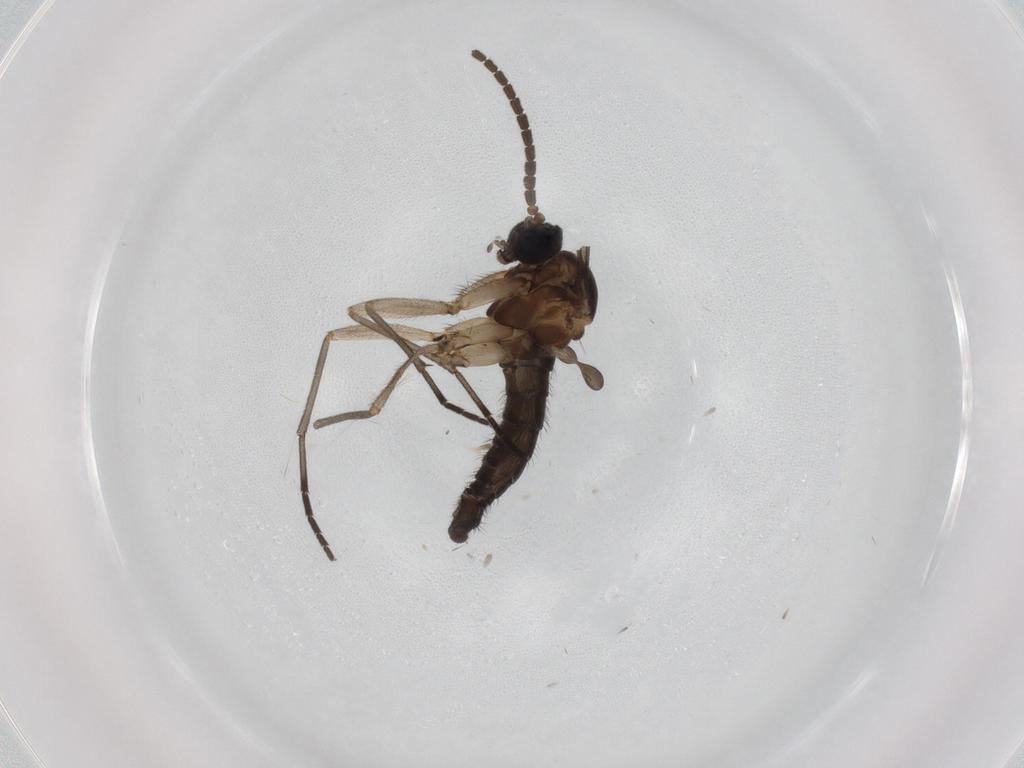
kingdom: Animalia
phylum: Arthropoda
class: Insecta
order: Diptera
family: Sciaridae
